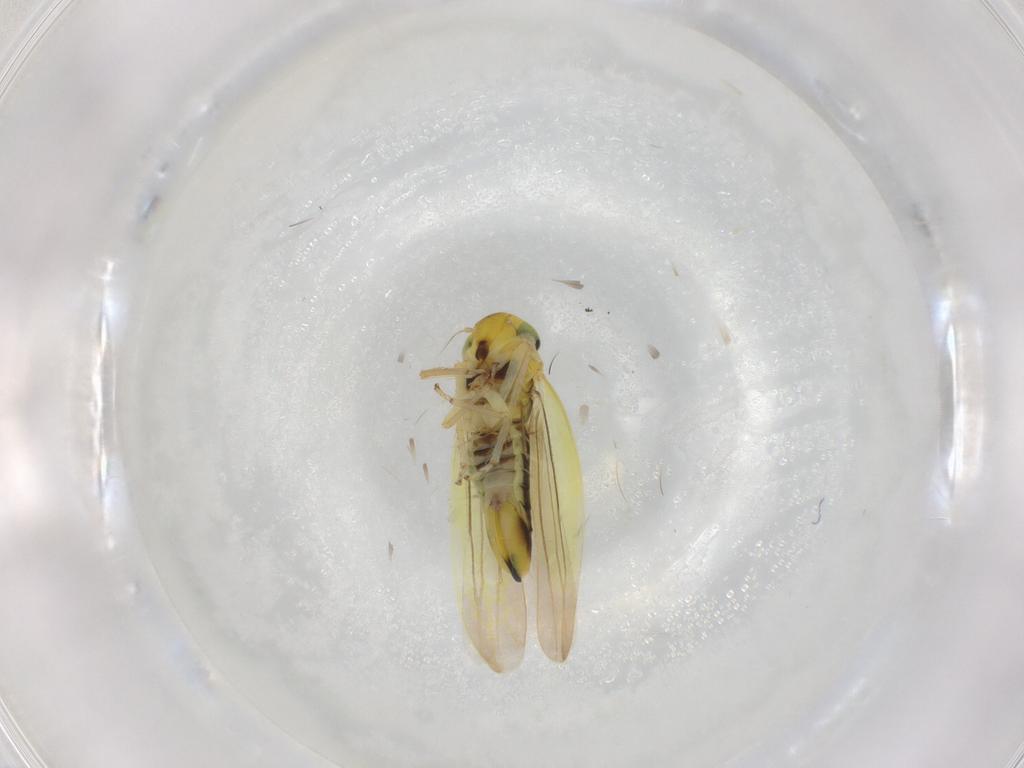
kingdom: Animalia
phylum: Arthropoda
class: Insecta
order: Hemiptera
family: Cicadellidae
